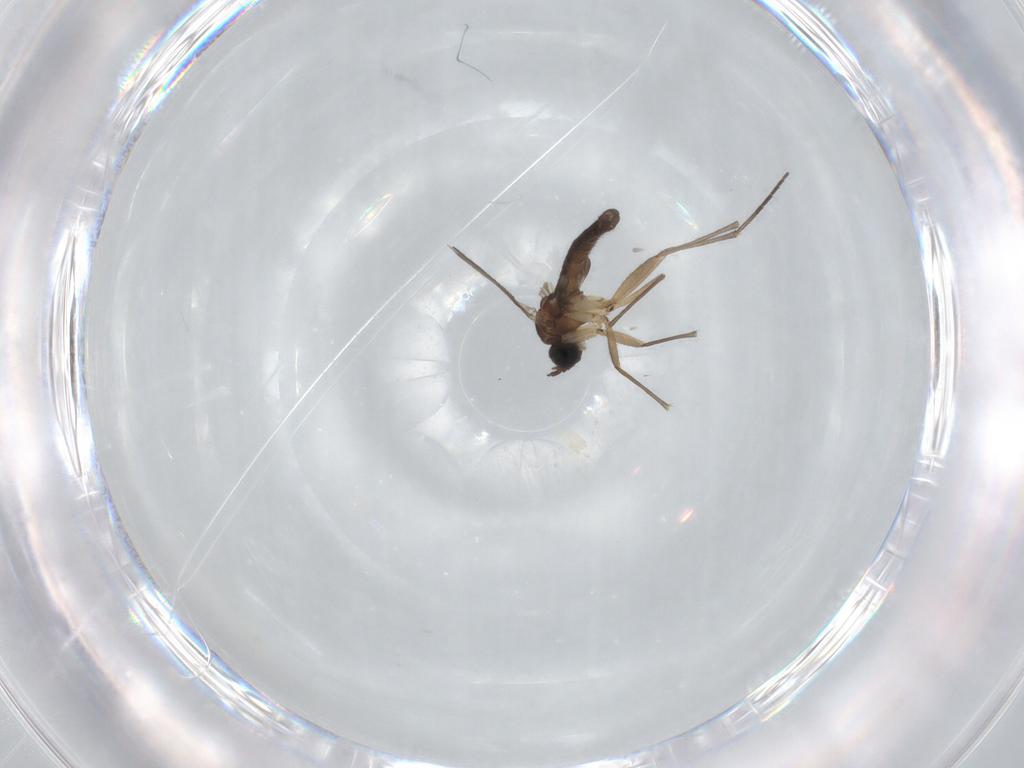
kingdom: Animalia
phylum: Arthropoda
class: Insecta
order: Diptera
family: Sciaridae
